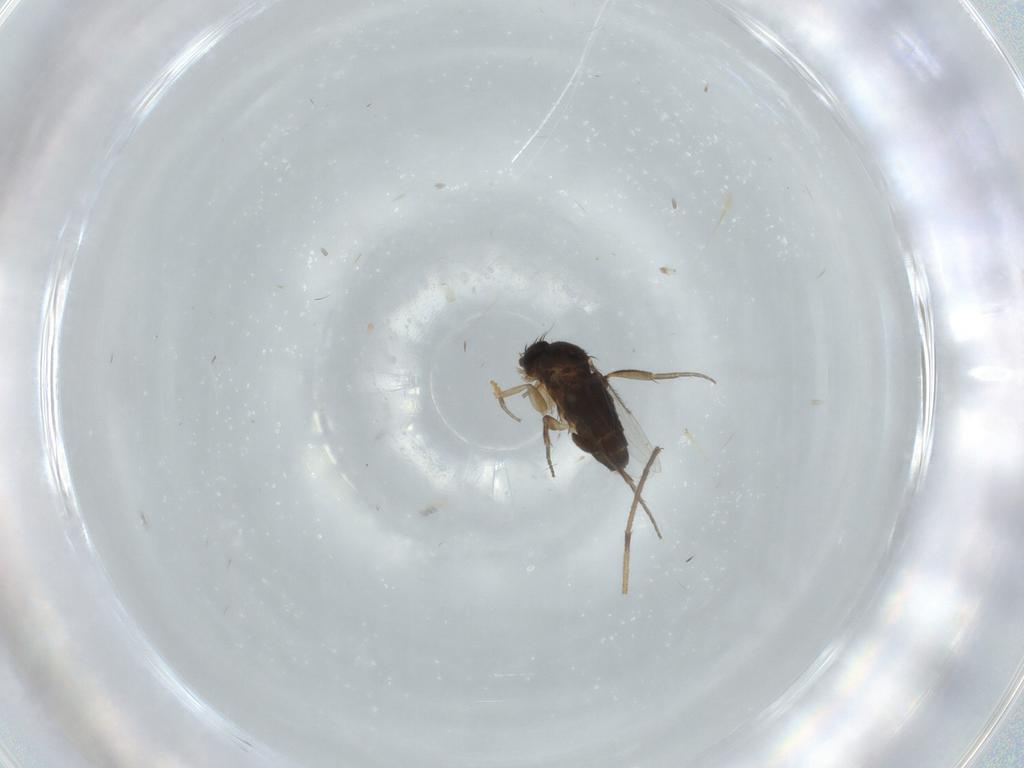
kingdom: Animalia
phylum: Arthropoda
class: Insecta
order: Diptera
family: Phoridae
